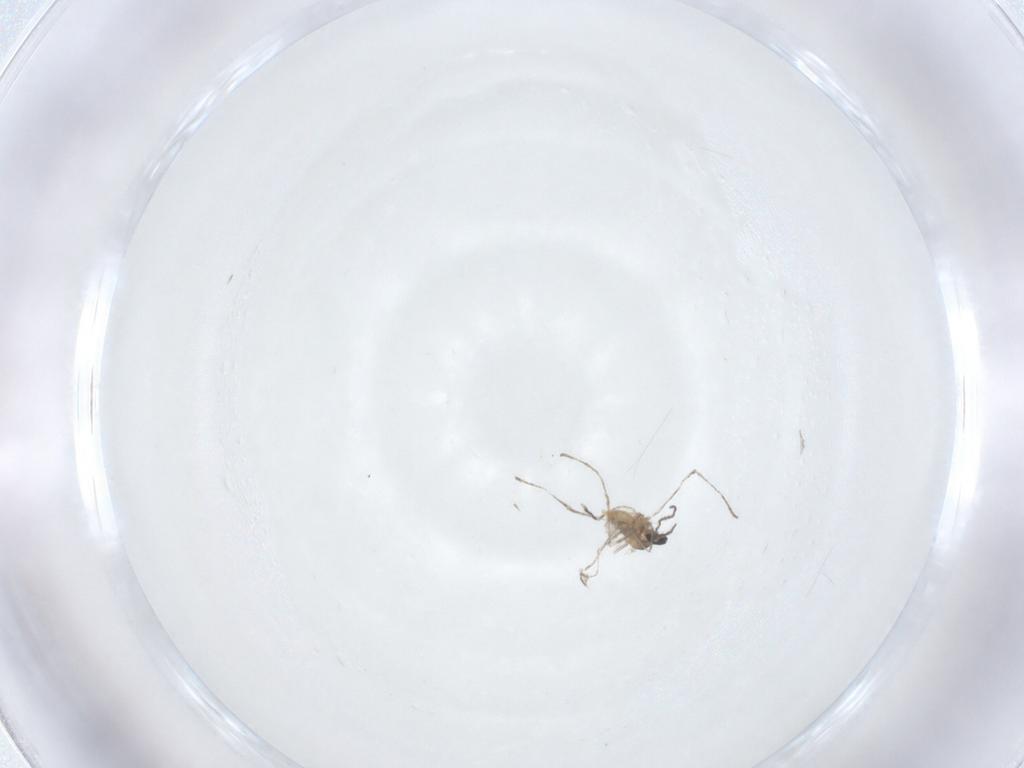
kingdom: Animalia
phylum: Arthropoda
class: Insecta
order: Diptera
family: Cecidomyiidae
